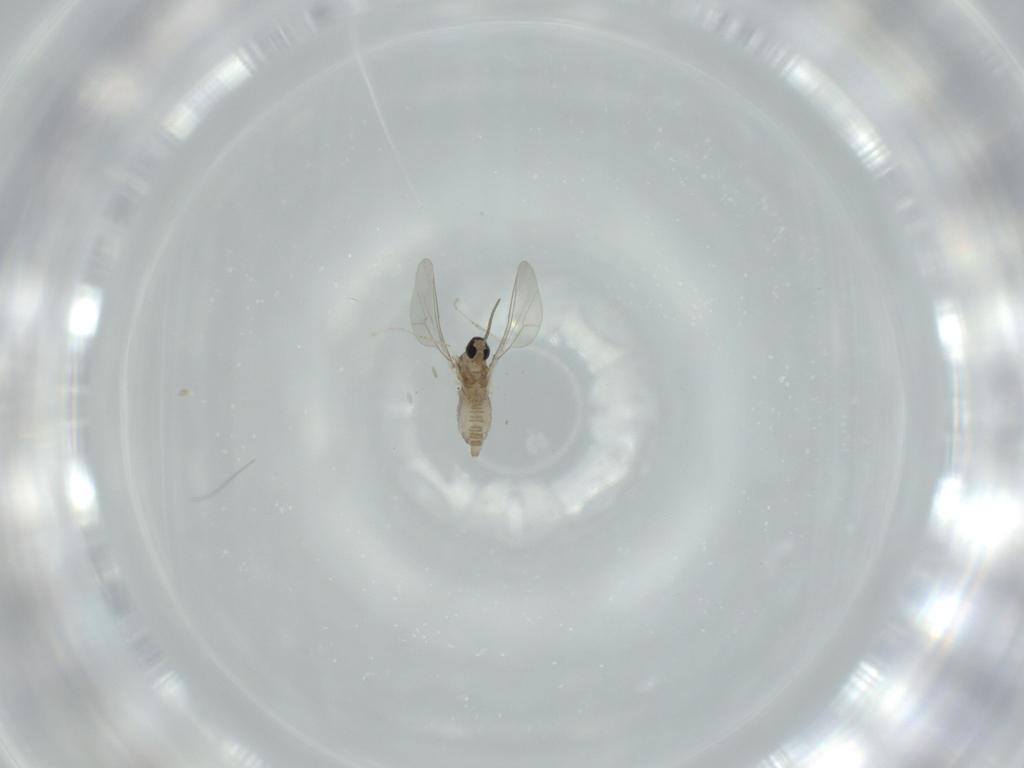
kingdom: Animalia
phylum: Arthropoda
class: Insecta
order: Diptera
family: Cecidomyiidae
